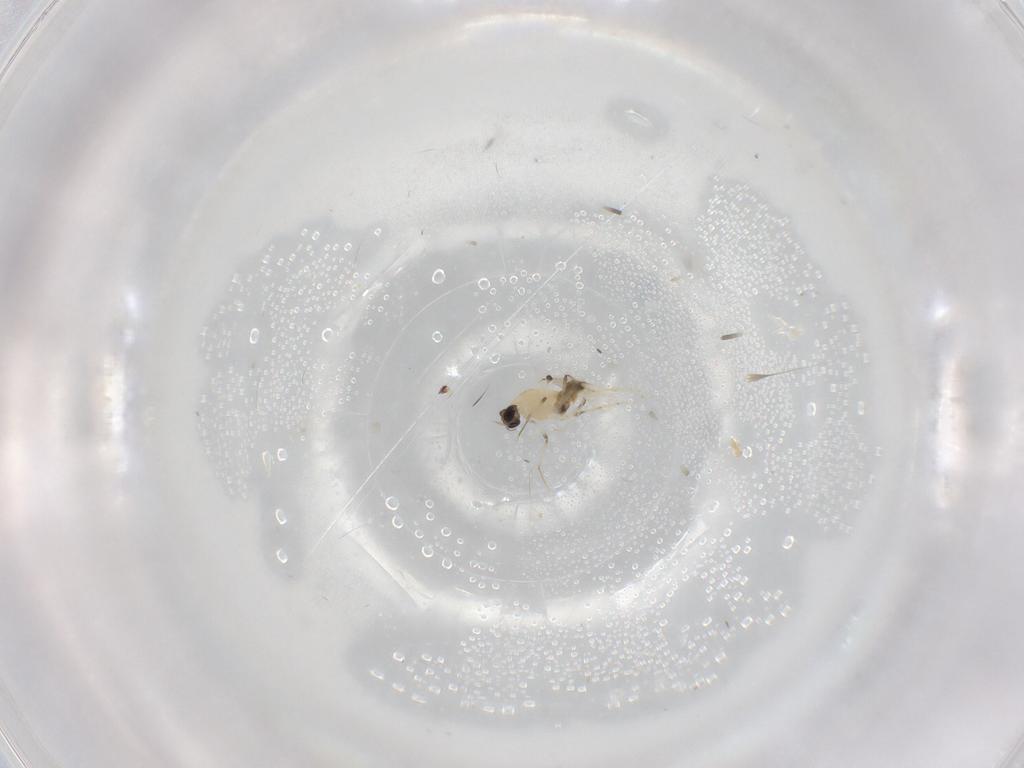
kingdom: Animalia
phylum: Arthropoda
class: Insecta
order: Diptera
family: Chironomidae
